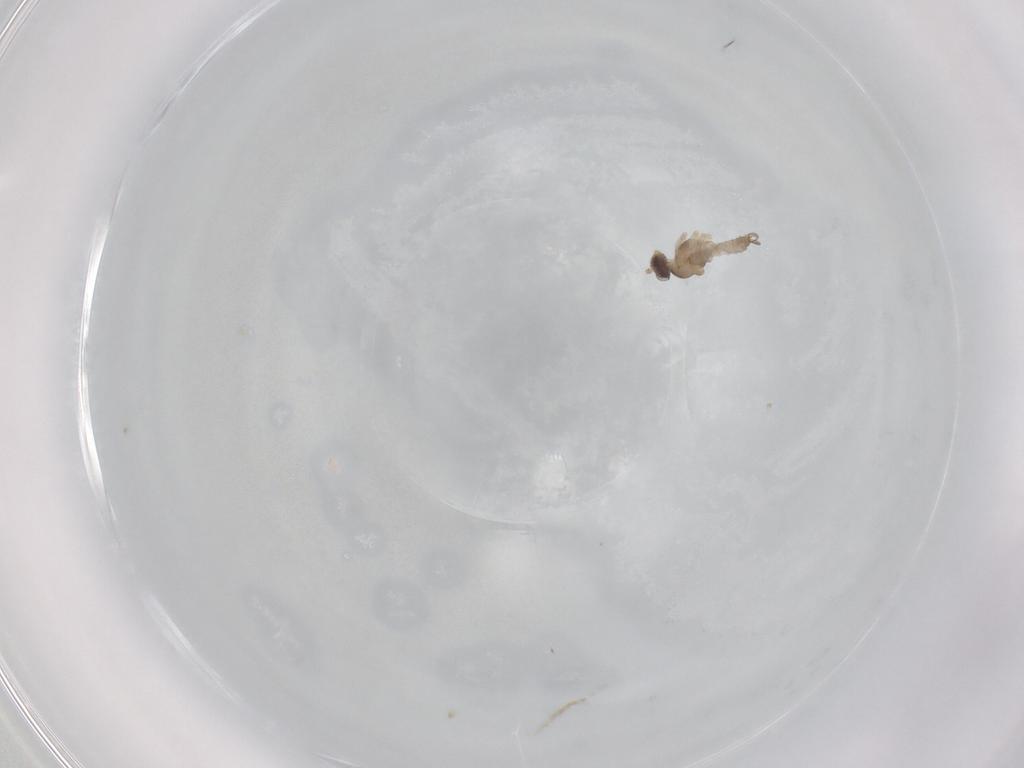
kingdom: Animalia
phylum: Arthropoda
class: Insecta
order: Diptera
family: Cecidomyiidae
